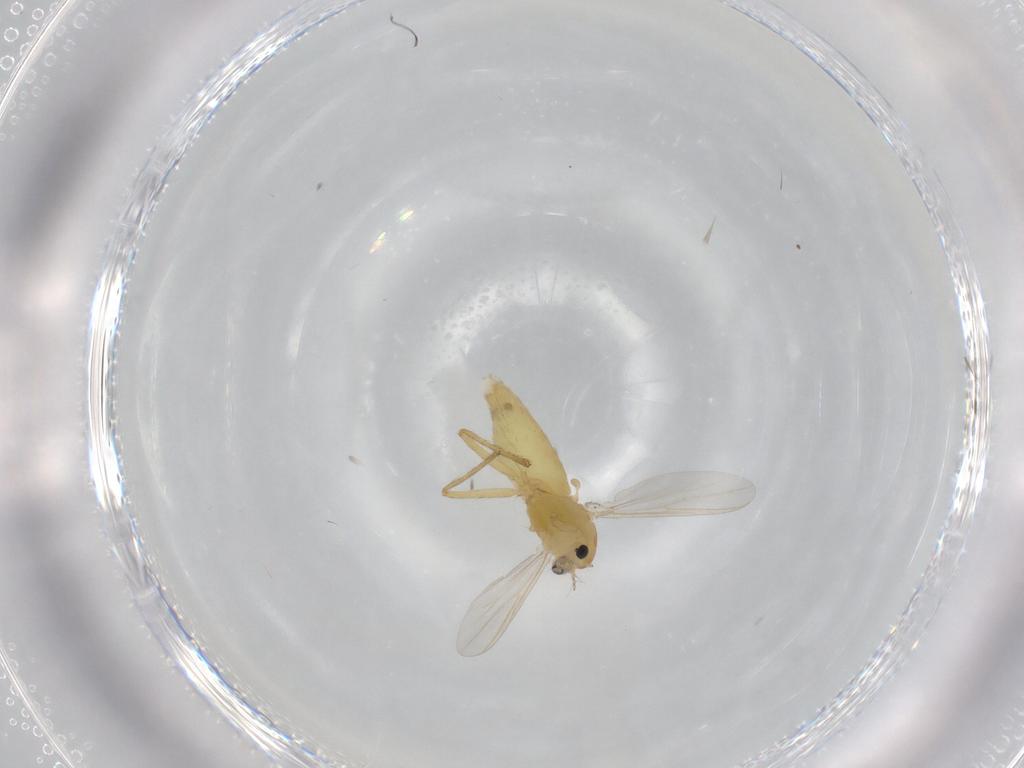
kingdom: Animalia
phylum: Arthropoda
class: Insecta
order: Diptera
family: Chironomidae
